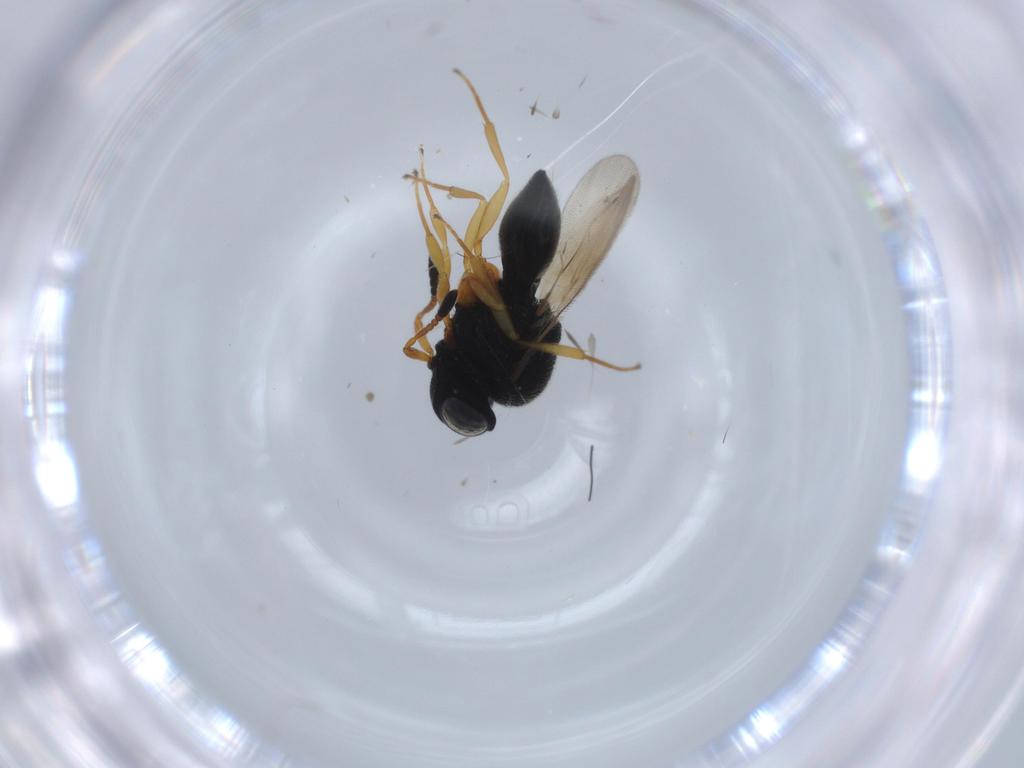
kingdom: Animalia
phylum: Arthropoda
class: Insecta
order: Hymenoptera
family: Scelionidae
